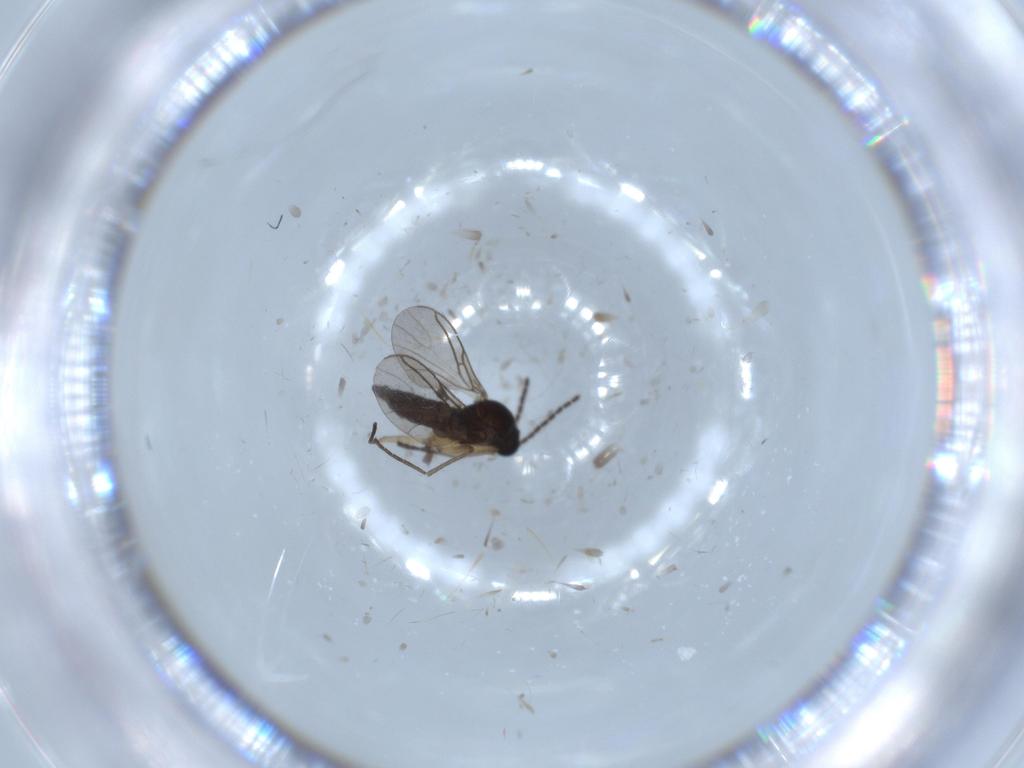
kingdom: Animalia
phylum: Arthropoda
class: Insecta
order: Diptera
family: Sciaridae
